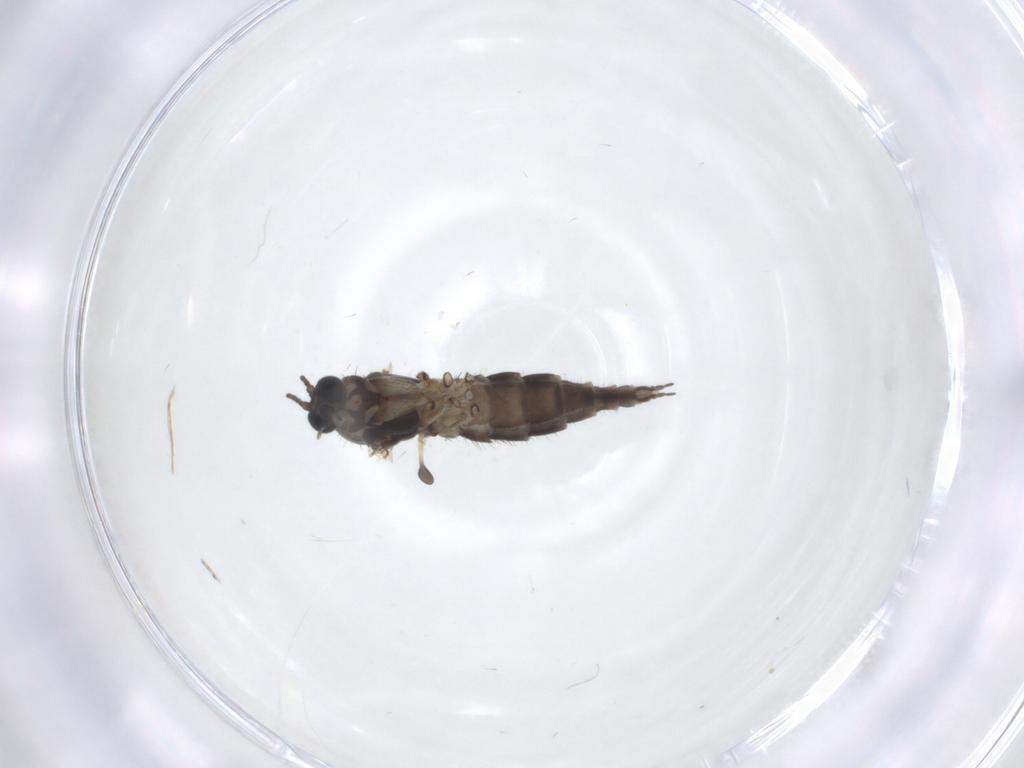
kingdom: Animalia
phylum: Arthropoda
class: Insecta
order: Diptera
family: Sciaridae
